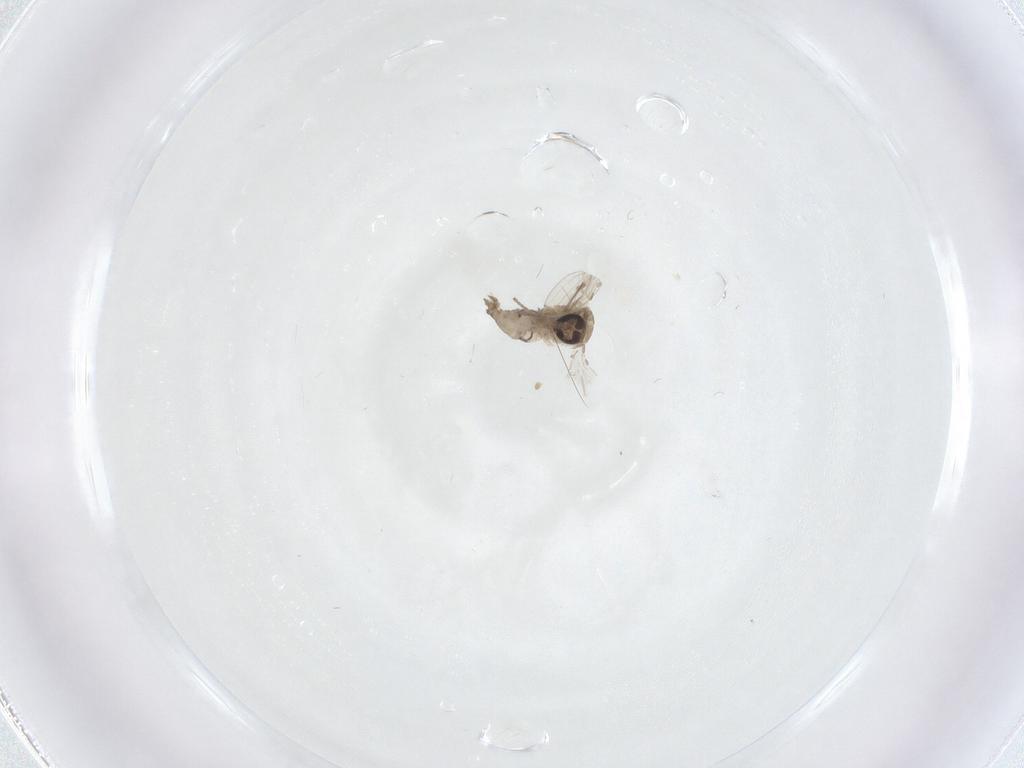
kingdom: Animalia
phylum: Arthropoda
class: Insecta
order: Diptera
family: Psychodidae
